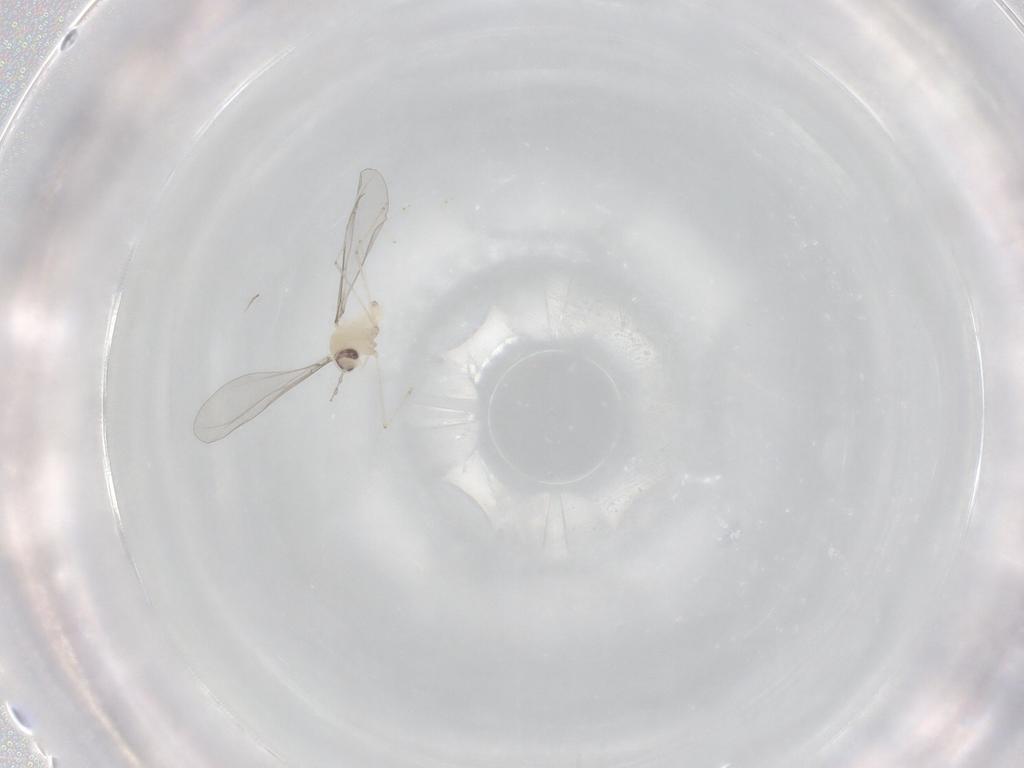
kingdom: Animalia
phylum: Arthropoda
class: Insecta
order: Diptera
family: Cecidomyiidae
